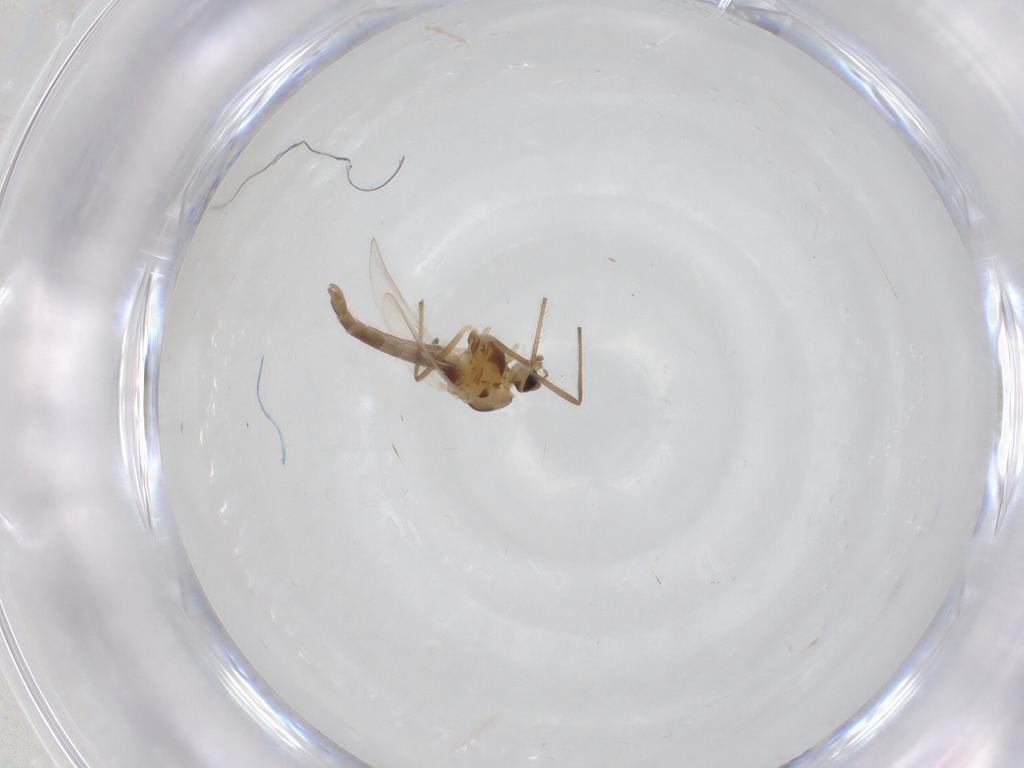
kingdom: Animalia
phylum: Arthropoda
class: Insecta
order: Diptera
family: Chironomidae
